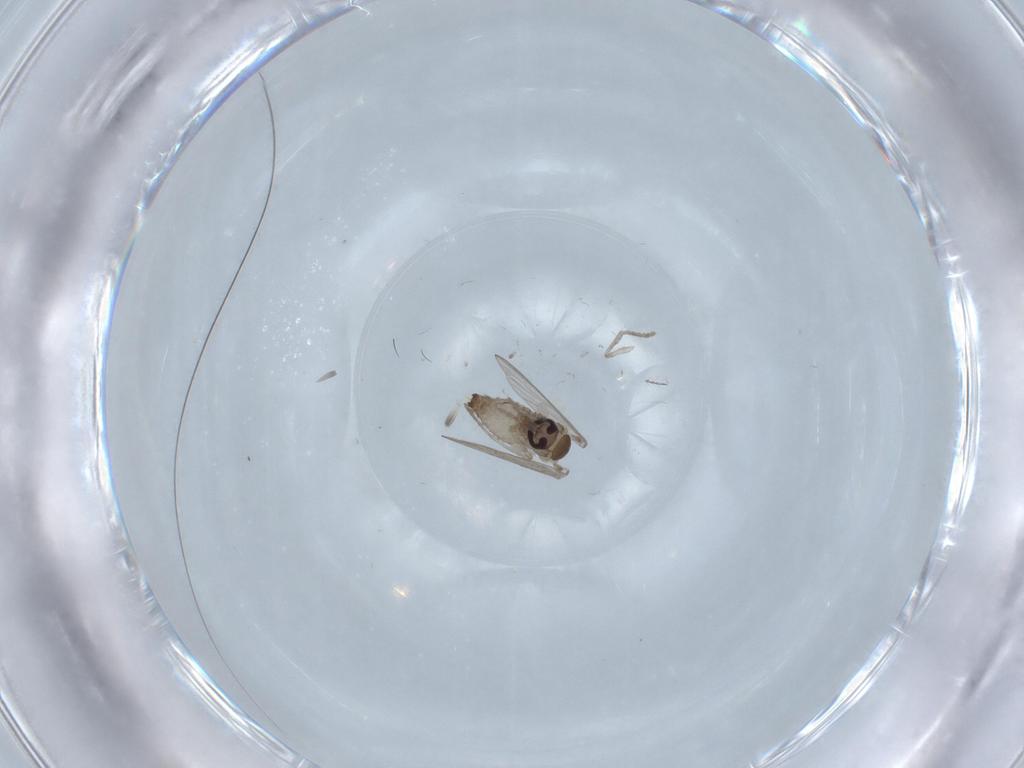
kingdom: Animalia
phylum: Arthropoda
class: Insecta
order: Diptera
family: Psychodidae
